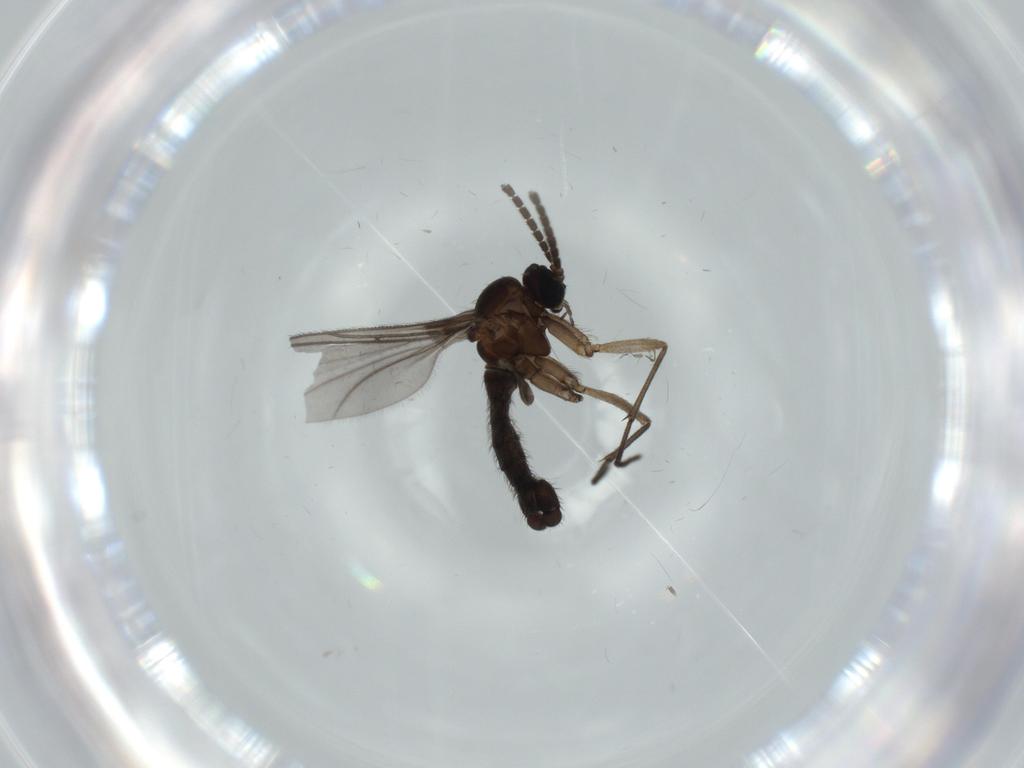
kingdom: Animalia
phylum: Arthropoda
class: Insecta
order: Diptera
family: Sciaridae
